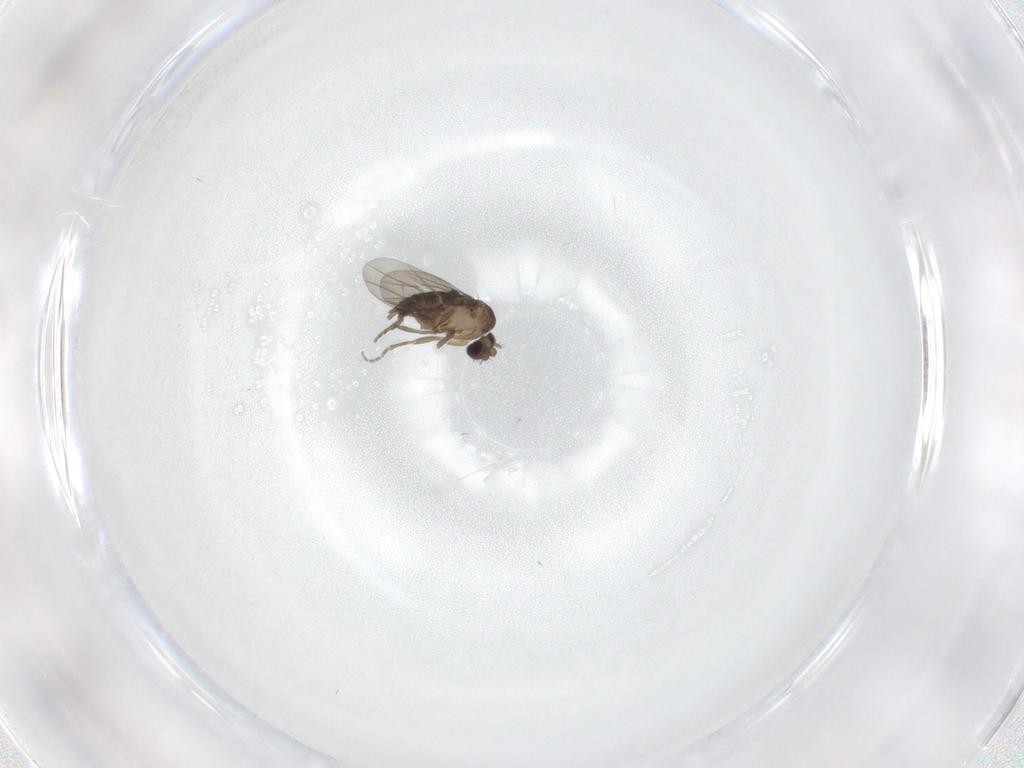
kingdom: Animalia
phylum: Arthropoda
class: Insecta
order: Diptera
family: Phoridae
